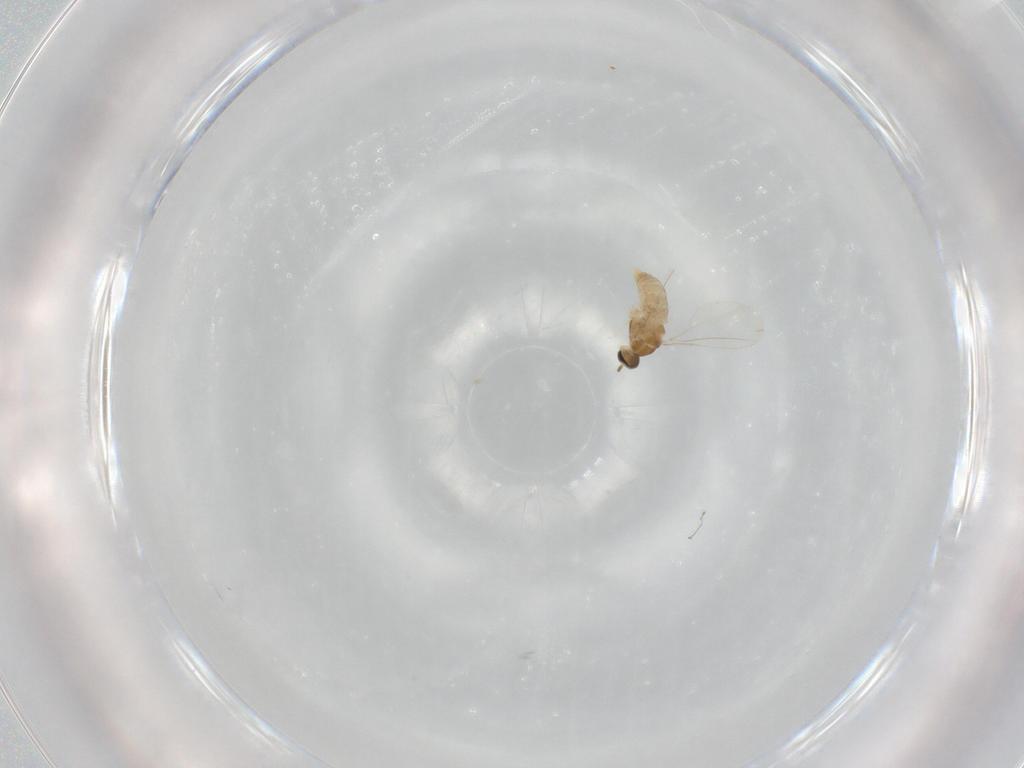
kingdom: Animalia
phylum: Arthropoda
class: Insecta
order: Diptera
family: Cecidomyiidae
